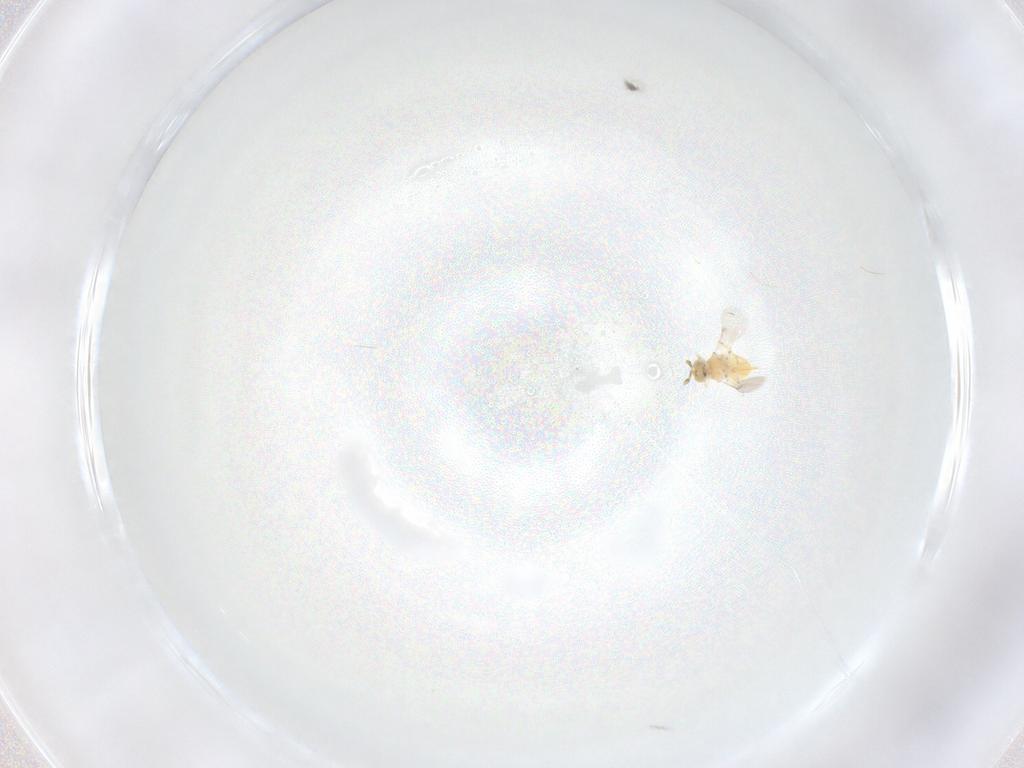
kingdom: Animalia
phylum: Arthropoda
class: Insecta
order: Hymenoptera
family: Encyrtidae
